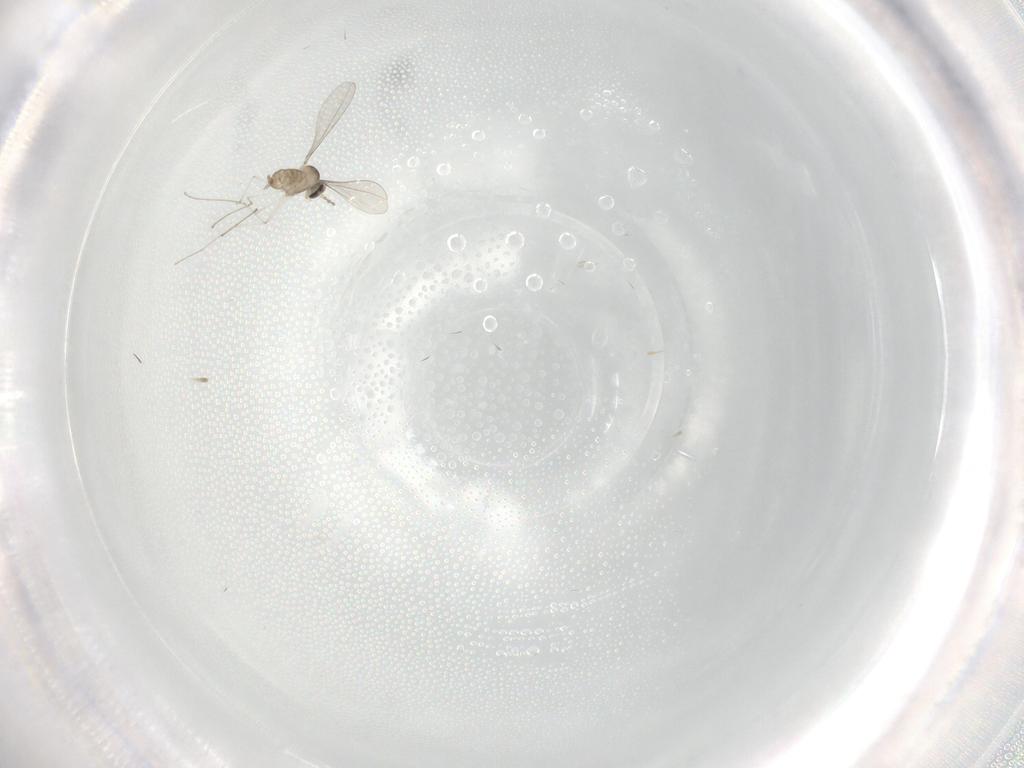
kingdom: Animalia
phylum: Arthropoda
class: Insecta
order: Diptera
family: Cecidomyiidae
